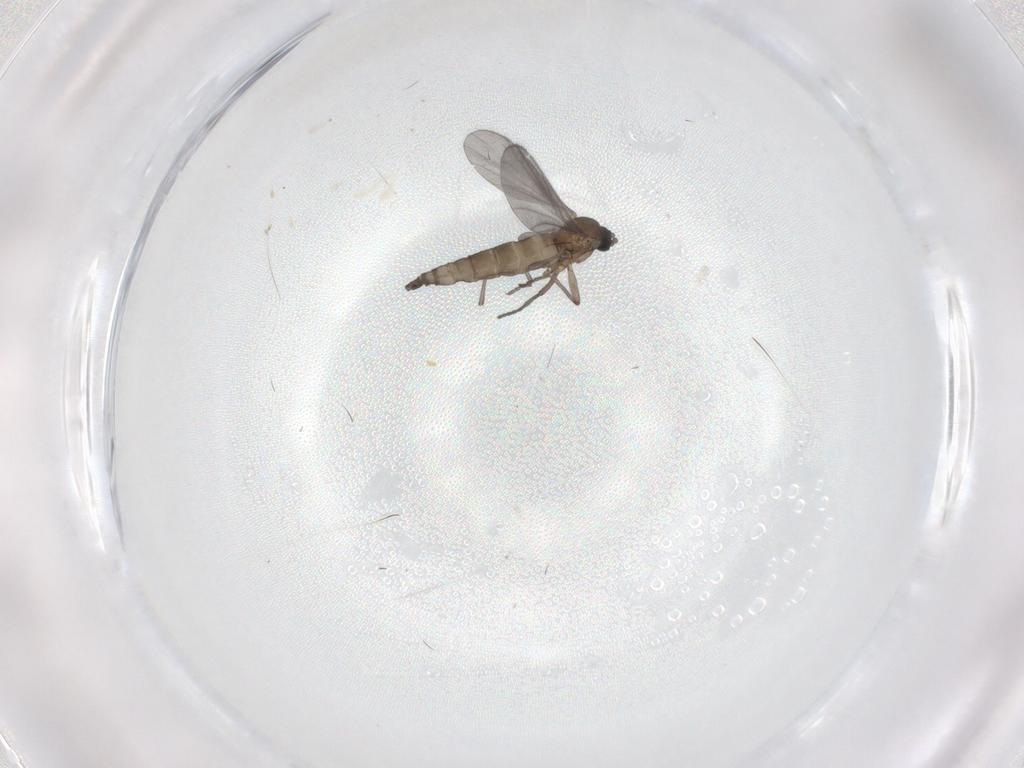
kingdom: Animalia
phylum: Arthropoda
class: Insecta
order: Diptera
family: Sciaridae
